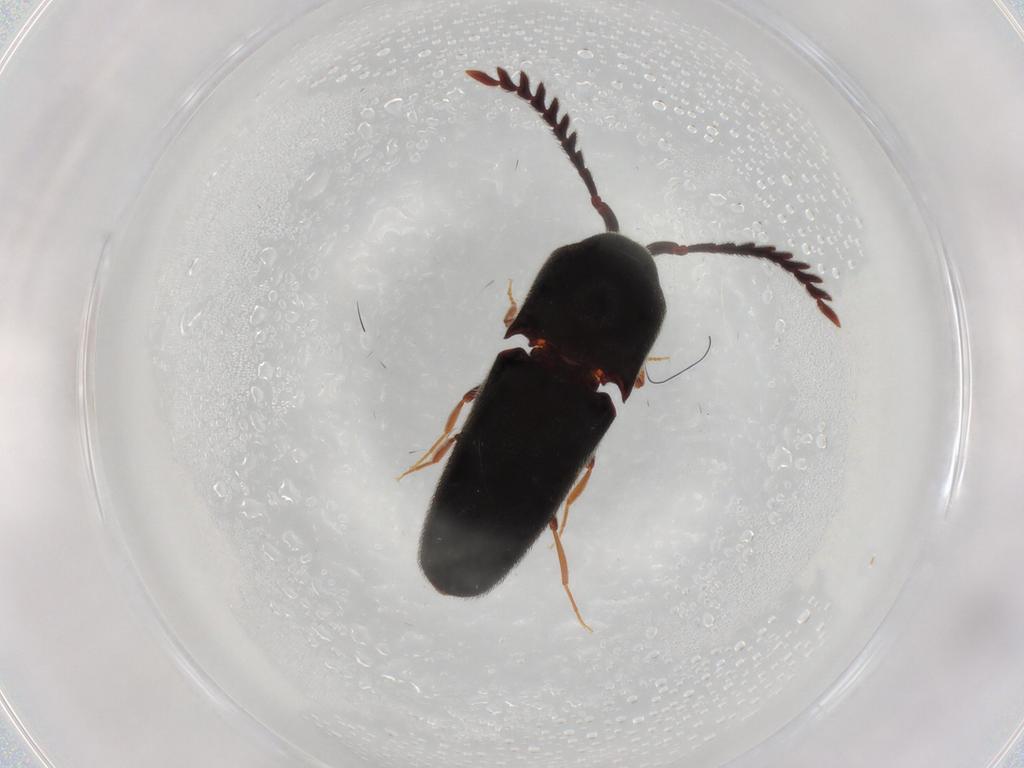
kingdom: Animalia
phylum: Arthropoda
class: Insecta
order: Coleoptera
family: Eucnemidae
